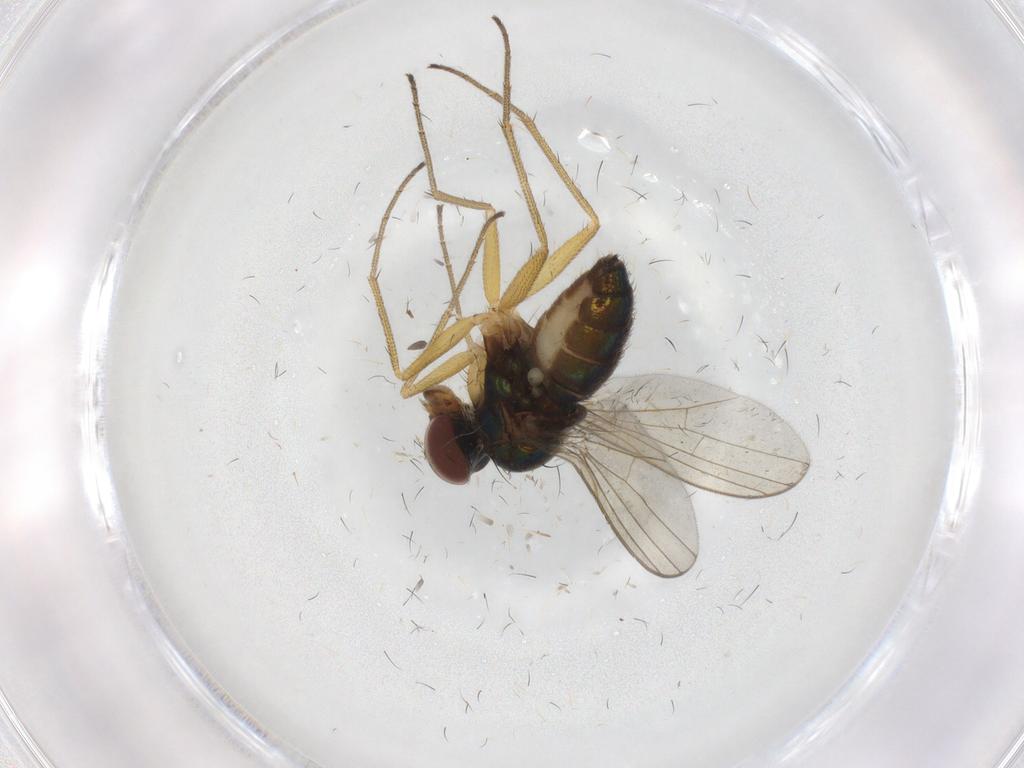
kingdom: Animalia
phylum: Arthropoda
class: Insecta
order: Diptera
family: Dolichopodidae
